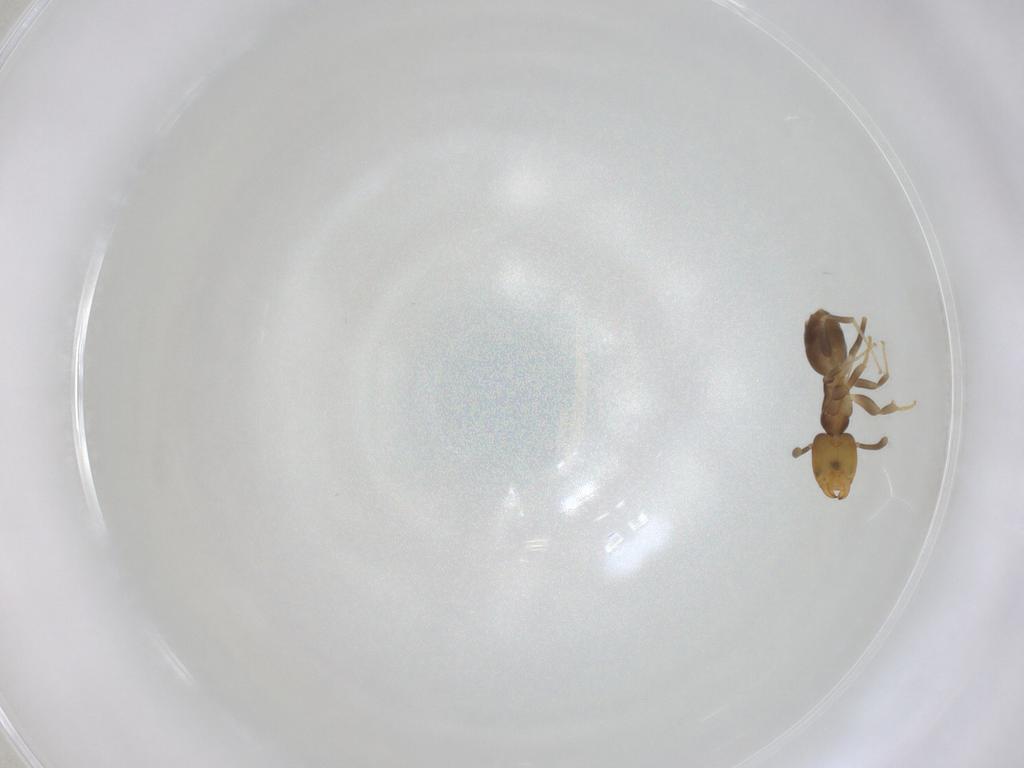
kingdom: Animalia
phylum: Arthropoda
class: Insecta
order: Hymenoptera
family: Formicidae
